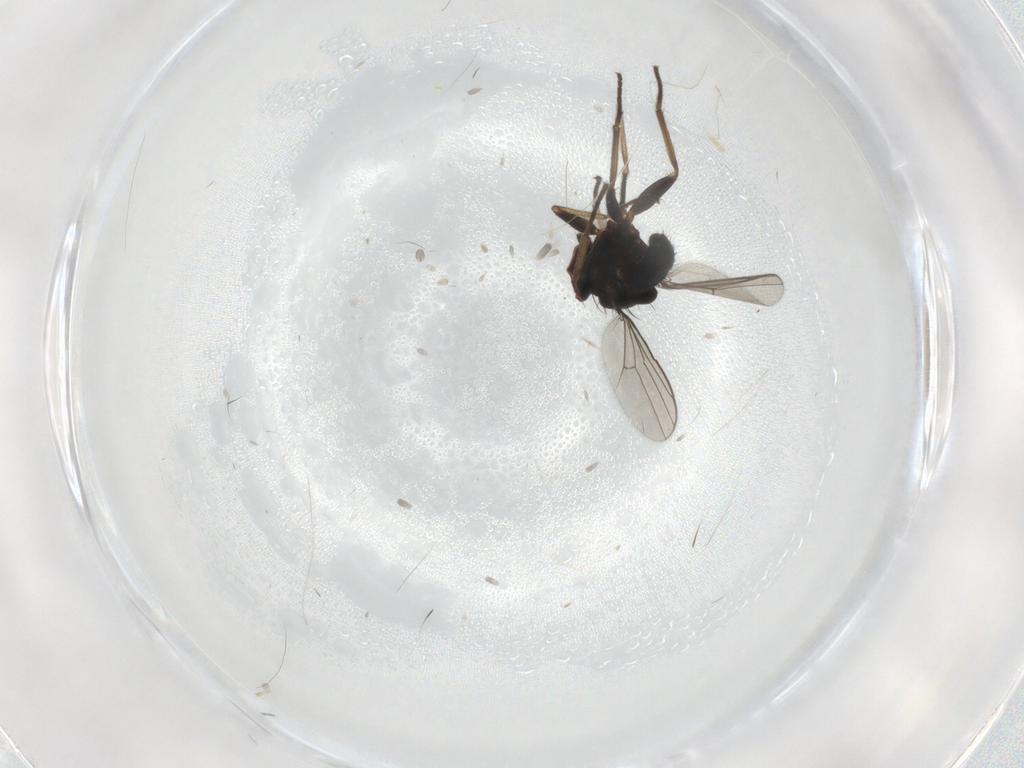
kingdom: Animalia
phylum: Arthropoda
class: Insecta
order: Diptera
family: Dolichopodidae
